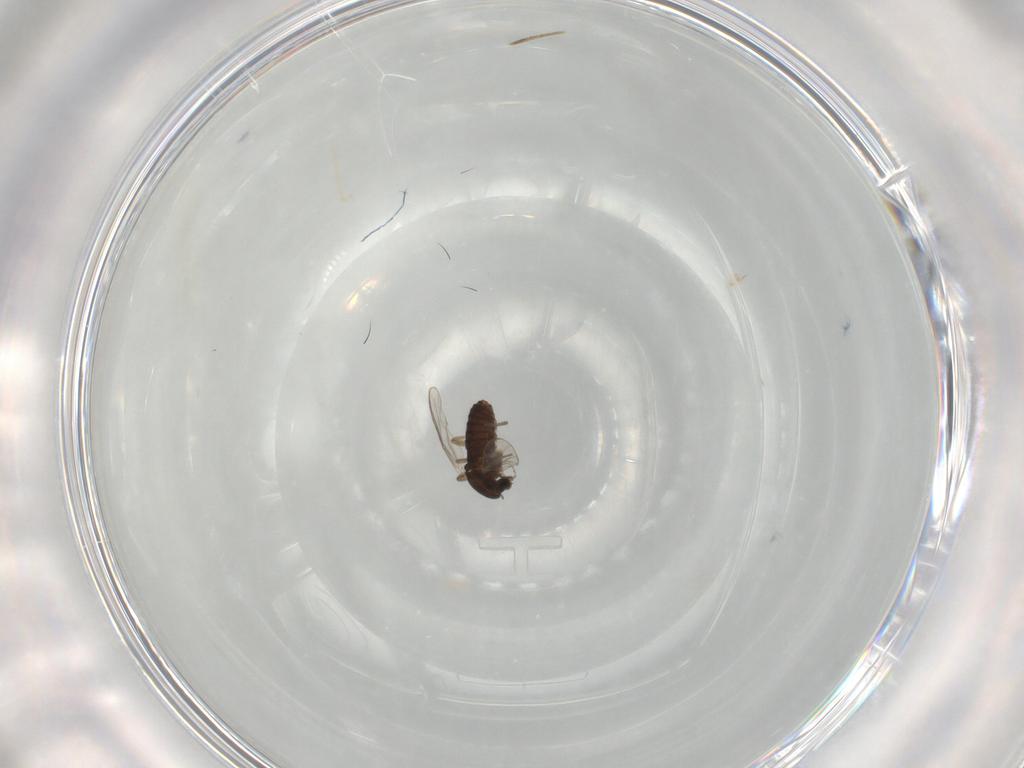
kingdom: Animalia
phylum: Arthropoda
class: Insecta
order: Diptera
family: Chironomidae
